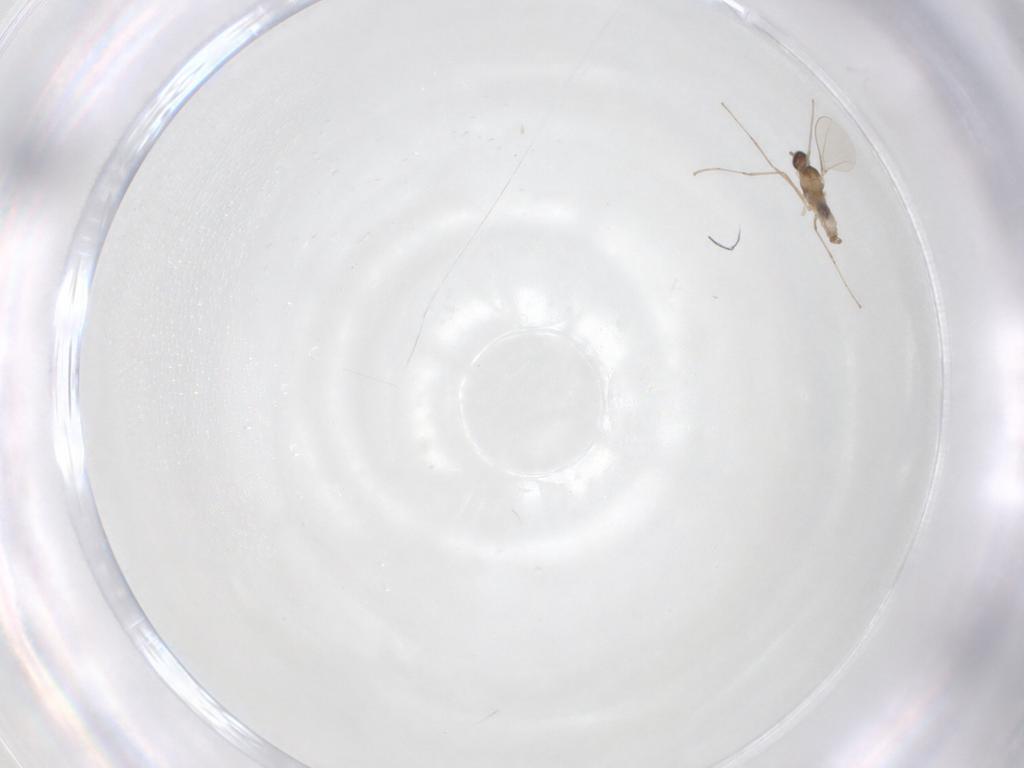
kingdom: Animalia
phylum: Arthropoda
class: Insecta
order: Diptera
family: Cecidomyiidae
